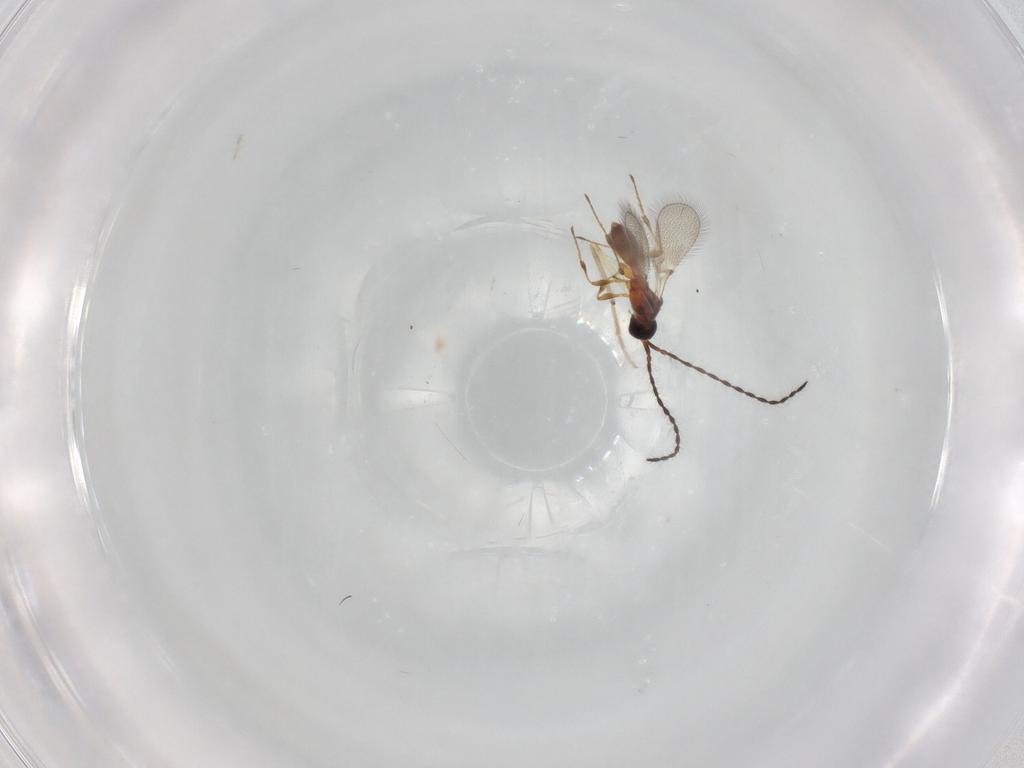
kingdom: Animalia
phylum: Arthropoda
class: Insecta
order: Hymenoptera
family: Diapriidae
